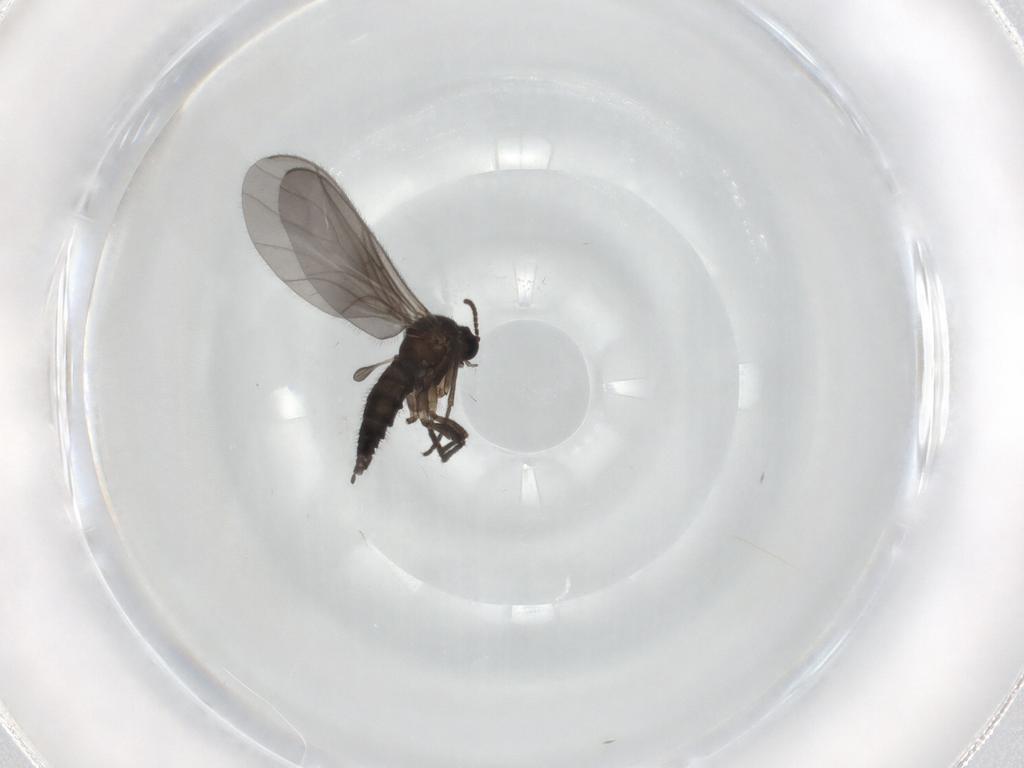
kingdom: Animalia
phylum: Arthropoda
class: Insecta
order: Diptera
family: Sciaridae
